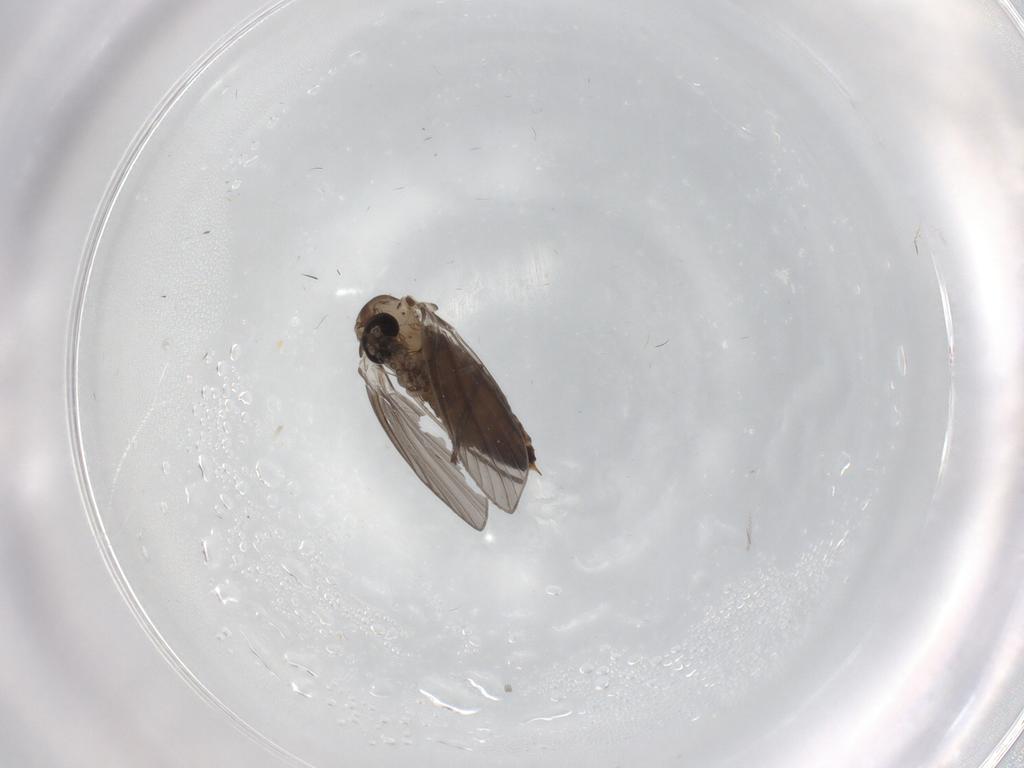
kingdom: Animalia
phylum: Arthropoda
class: Insecta
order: Diptera
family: Psychodidae
